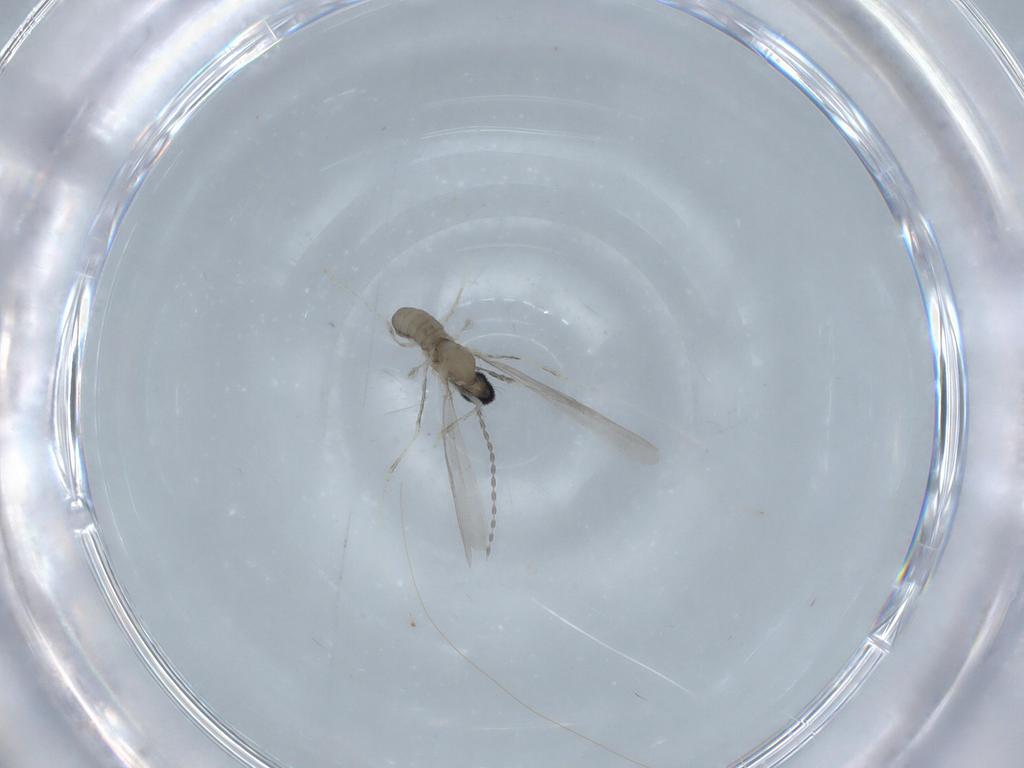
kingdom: Animalia
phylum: Arthropoda
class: Insecta
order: Diptera
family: Cecidomyiidae
